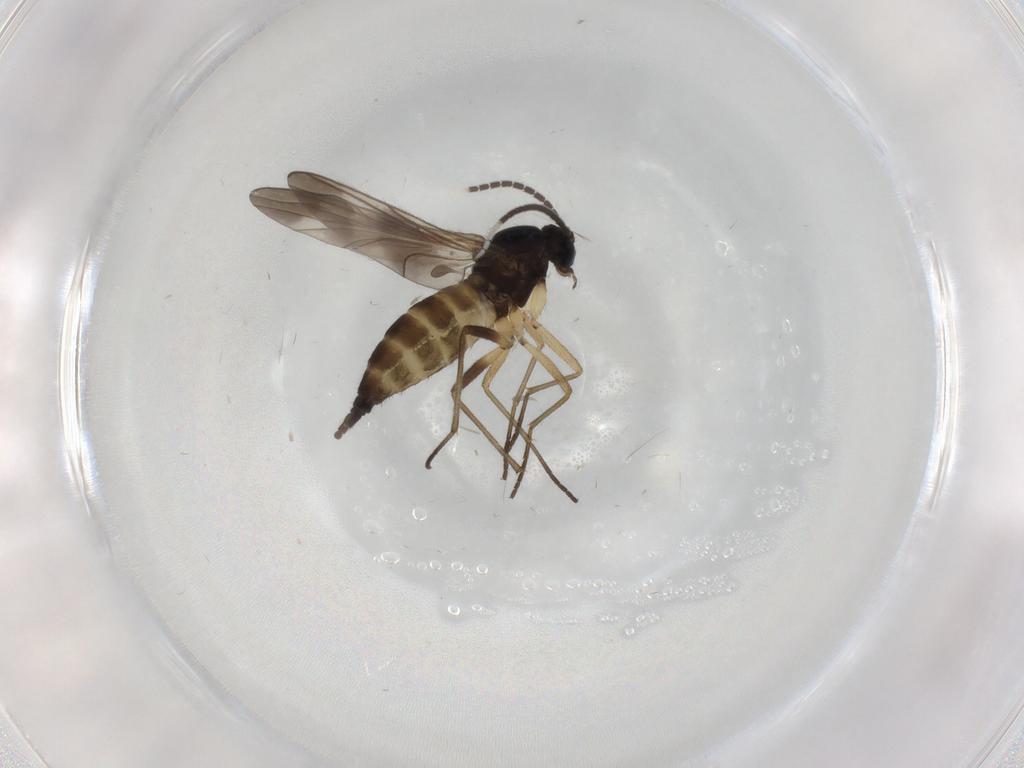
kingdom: Animalia
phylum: Arthropoda
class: Insecta
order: Diptera
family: Sciaridae
